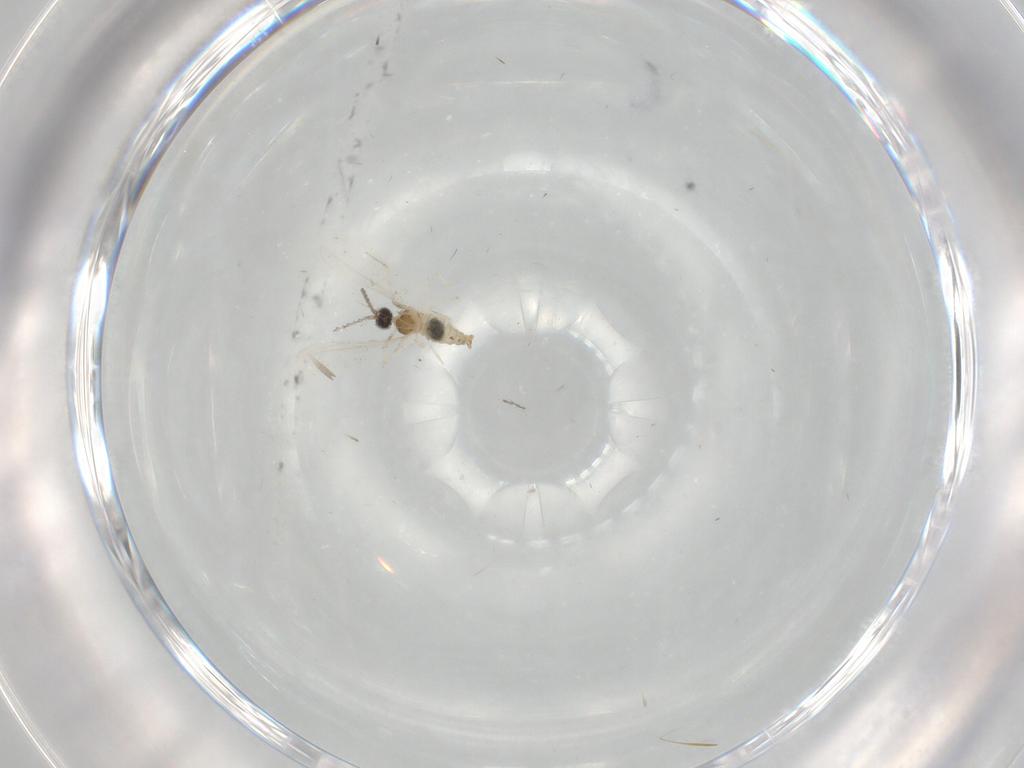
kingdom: Animalia
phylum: Arthropoda
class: Insecta
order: Diptera
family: Cecidomyiidae
